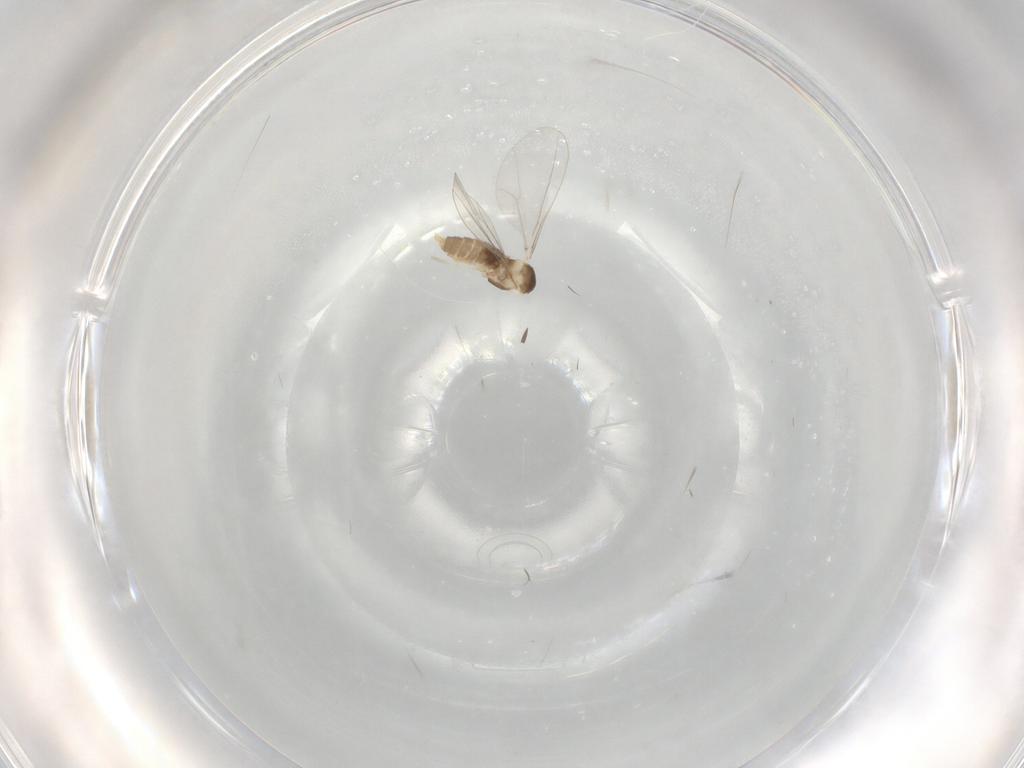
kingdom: Animalia
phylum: Arthropoda
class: Insecta
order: Diptera
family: Cecidomyiidae
